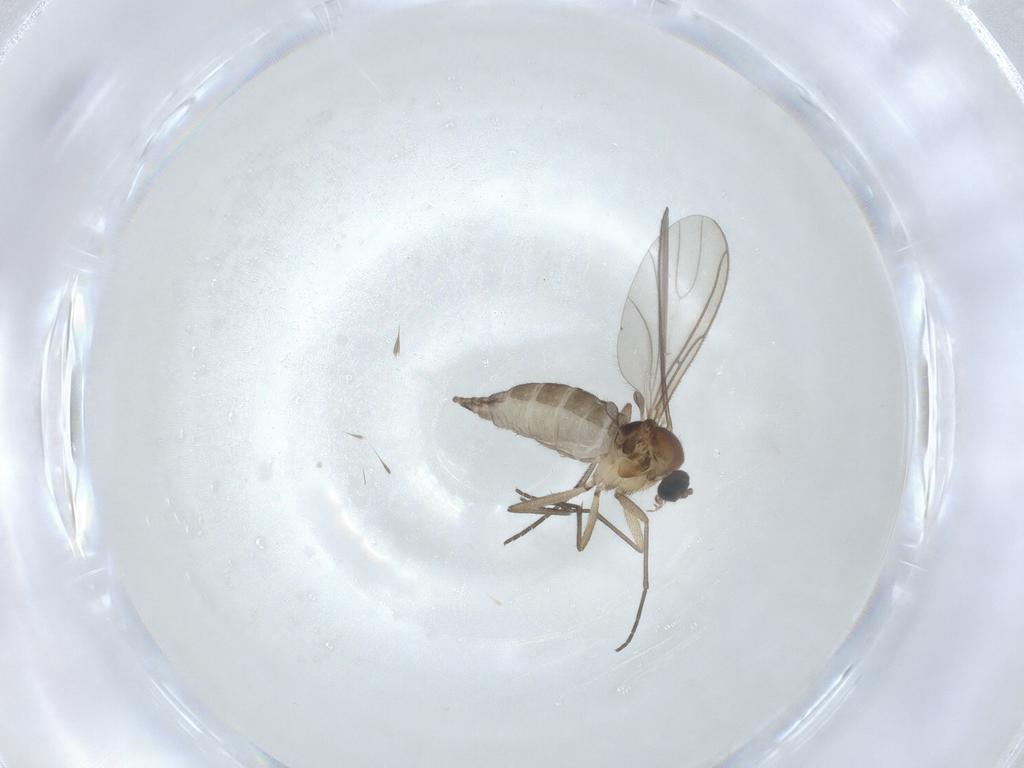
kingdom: Animalia
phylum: Arthropoda
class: Insecta
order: Diptera
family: Sciaridae
